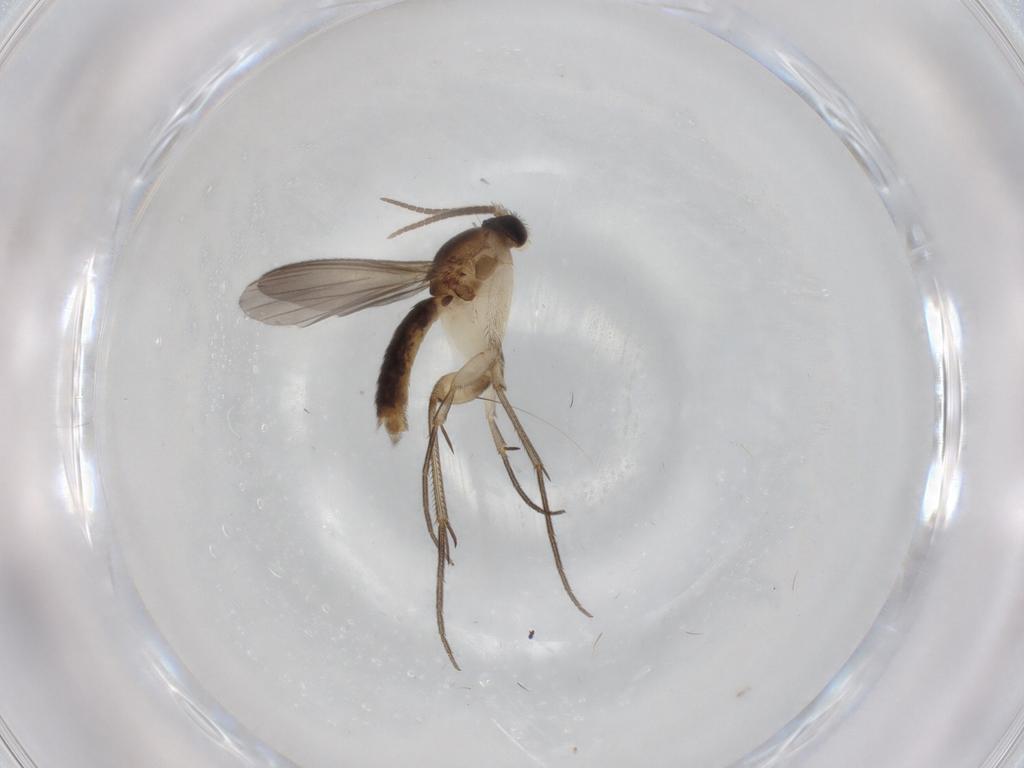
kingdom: Animalia
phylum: Arthropoda
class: Insecta
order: Diptera
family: Mycetophilidae
